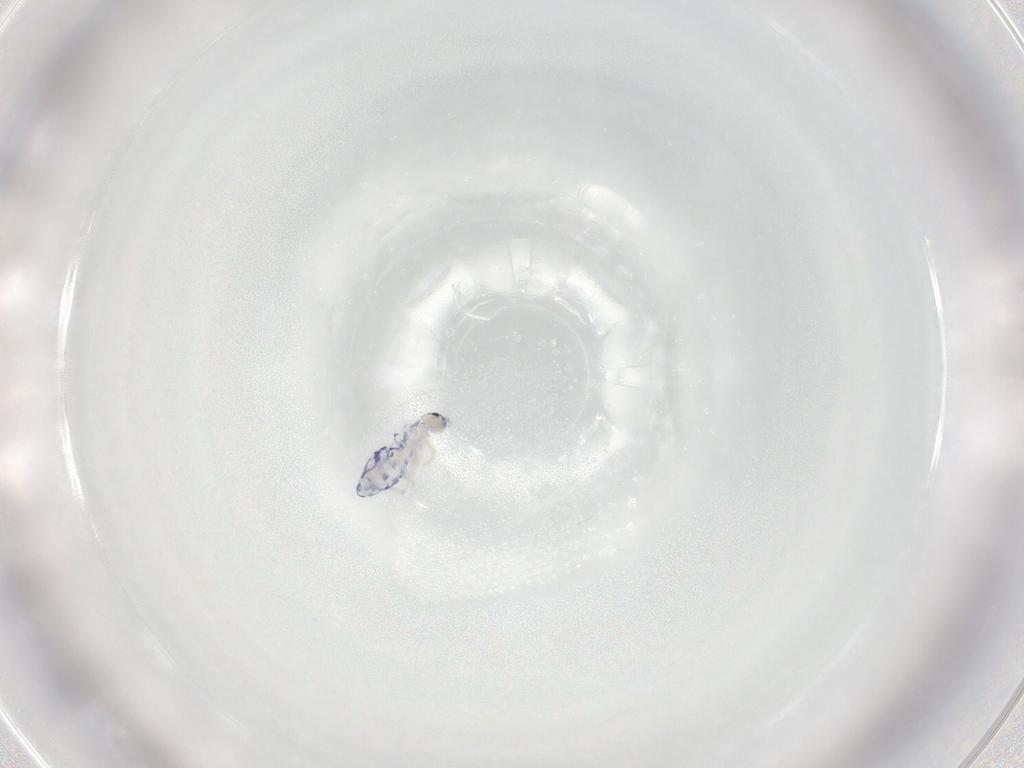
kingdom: Animalia
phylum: Arthropoda
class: Collembola
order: Entomobryomorpha
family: Entomobryidae
